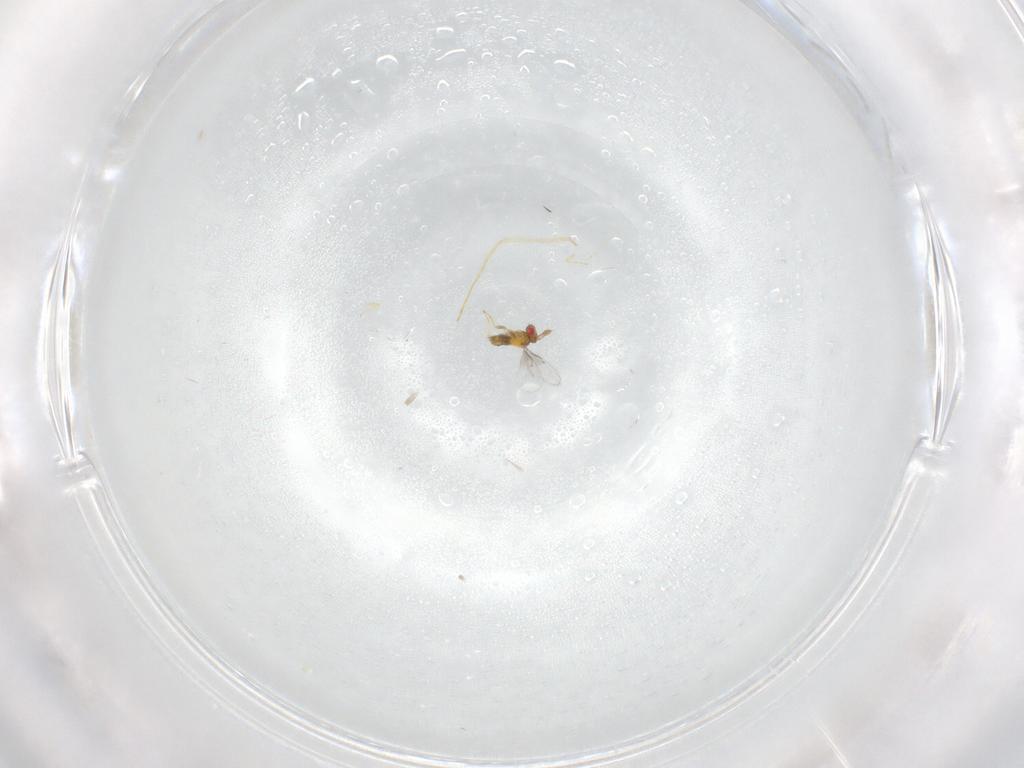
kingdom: Animalia
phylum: Arthropoda
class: Insecta
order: Hymenoptera
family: Trichogrammatidae
